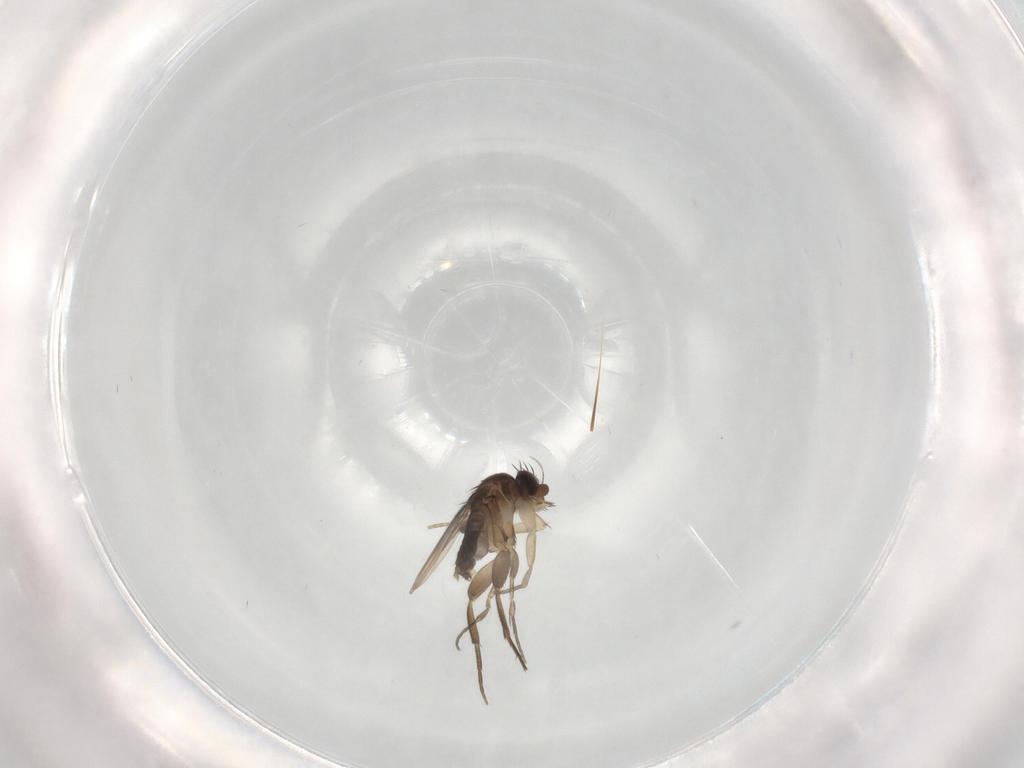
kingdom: Animalia
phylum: Arthropoda
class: Insecta
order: Diptera
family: Phoridae
